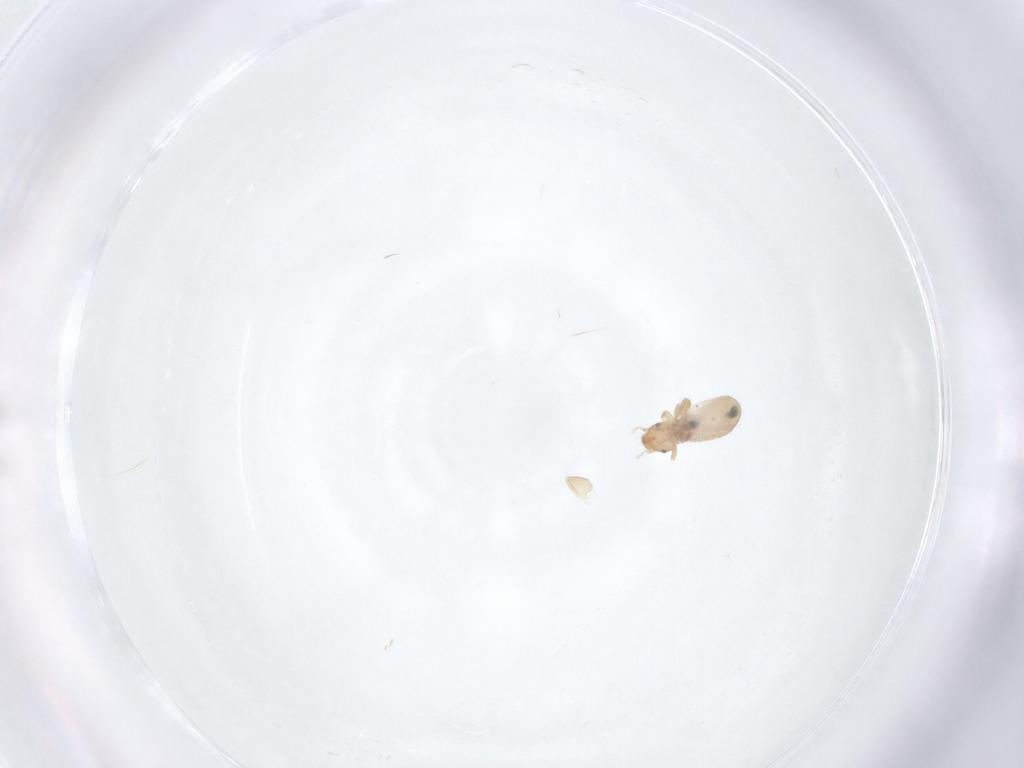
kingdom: Animalia
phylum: Arthropoda
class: Insecta
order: Psocodea
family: Liposcelididae
